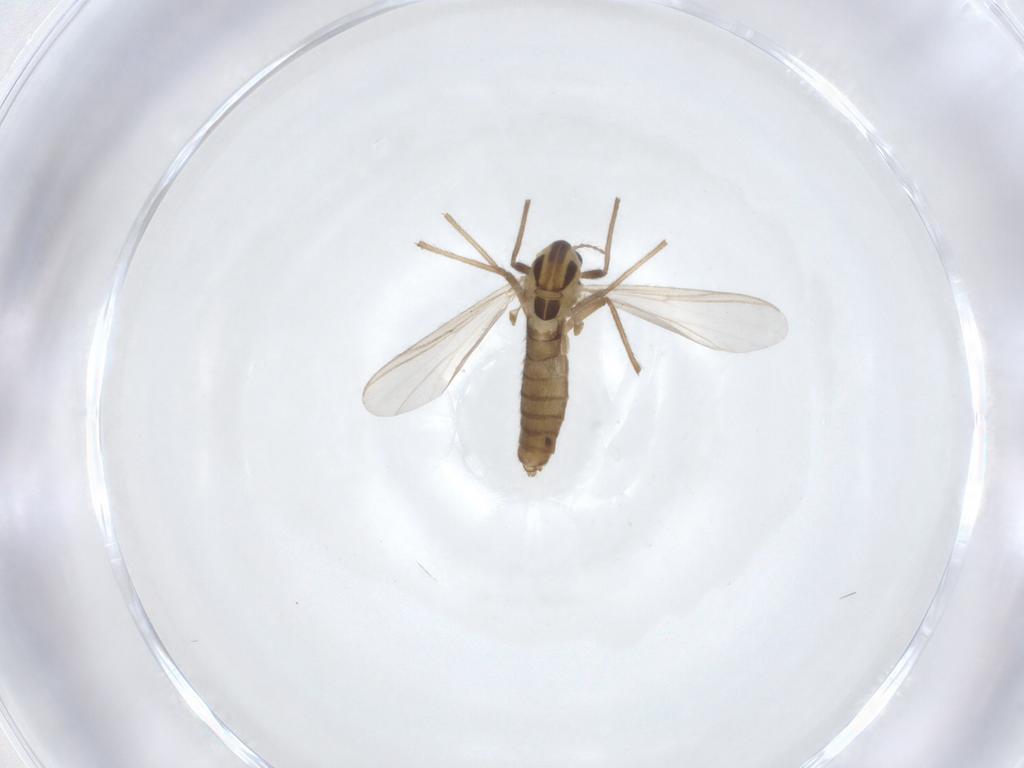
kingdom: Animalia
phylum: Arthropoda
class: Insecta
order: Diptera
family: Chironomidae
